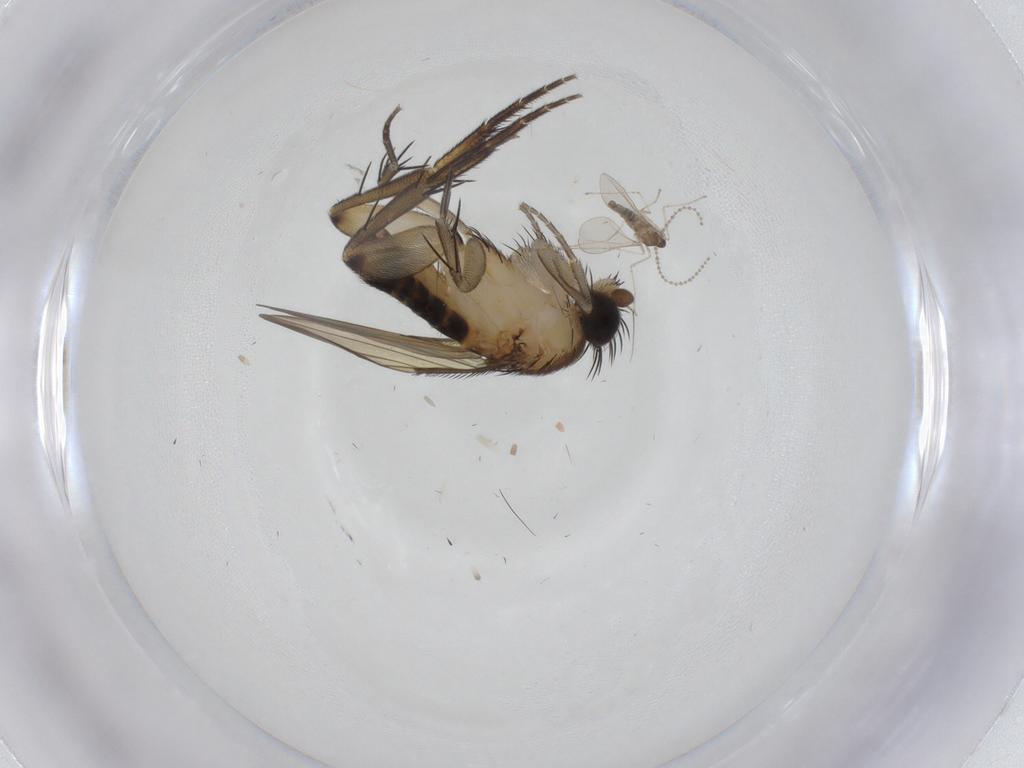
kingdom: Animalia
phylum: Arthropoda
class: Insecta
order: Diptera
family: Phoridae
